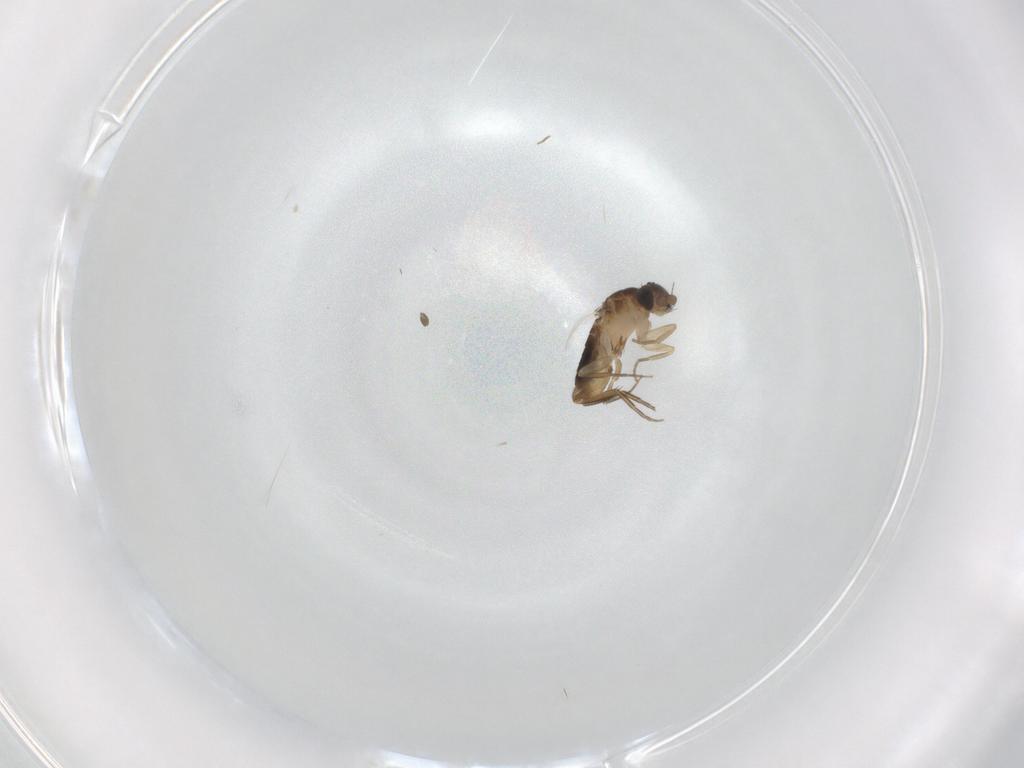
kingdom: Animalia
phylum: Arthropoda
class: Insecta
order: Diptera
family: Phoridae
